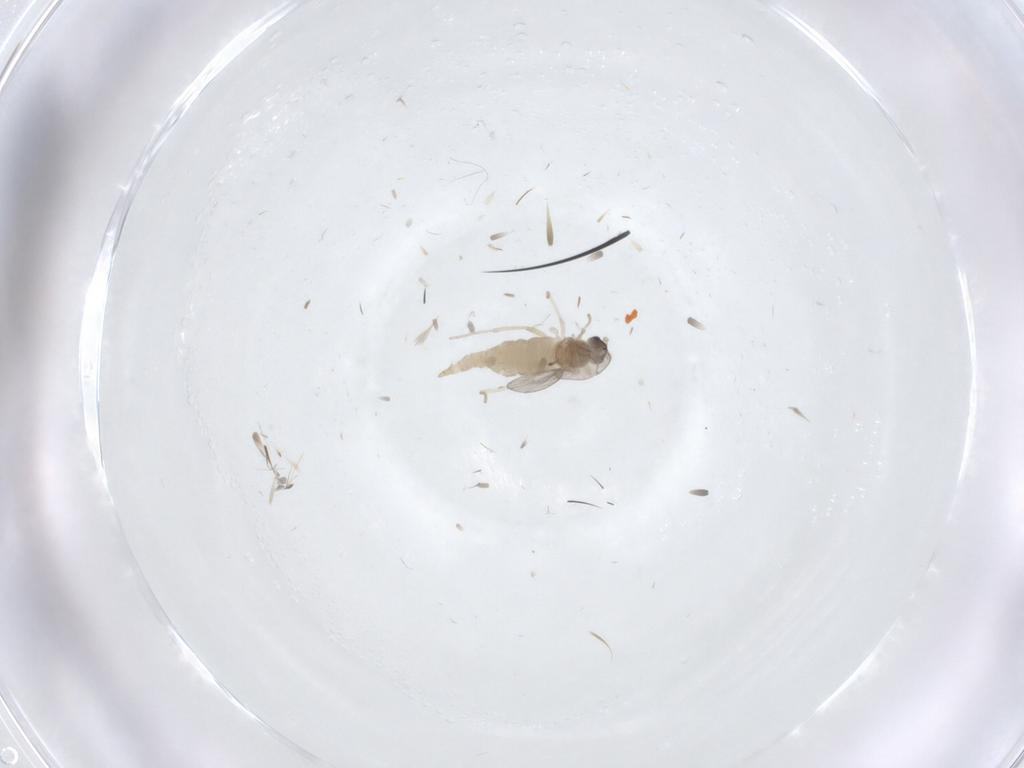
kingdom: Animalia
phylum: Arthropoda
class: Insecta
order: Diptera
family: Cecidomyiidae
